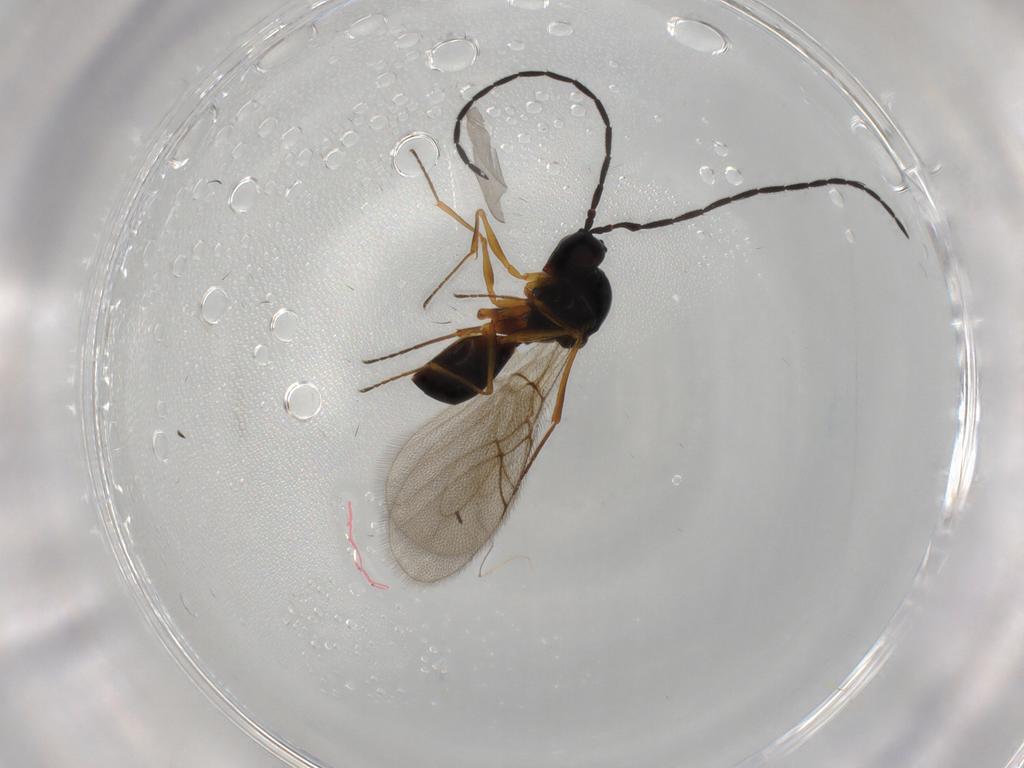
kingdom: Animalia
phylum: Arthropoda
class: Insecta
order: Hymenoptera
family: Figitidae
